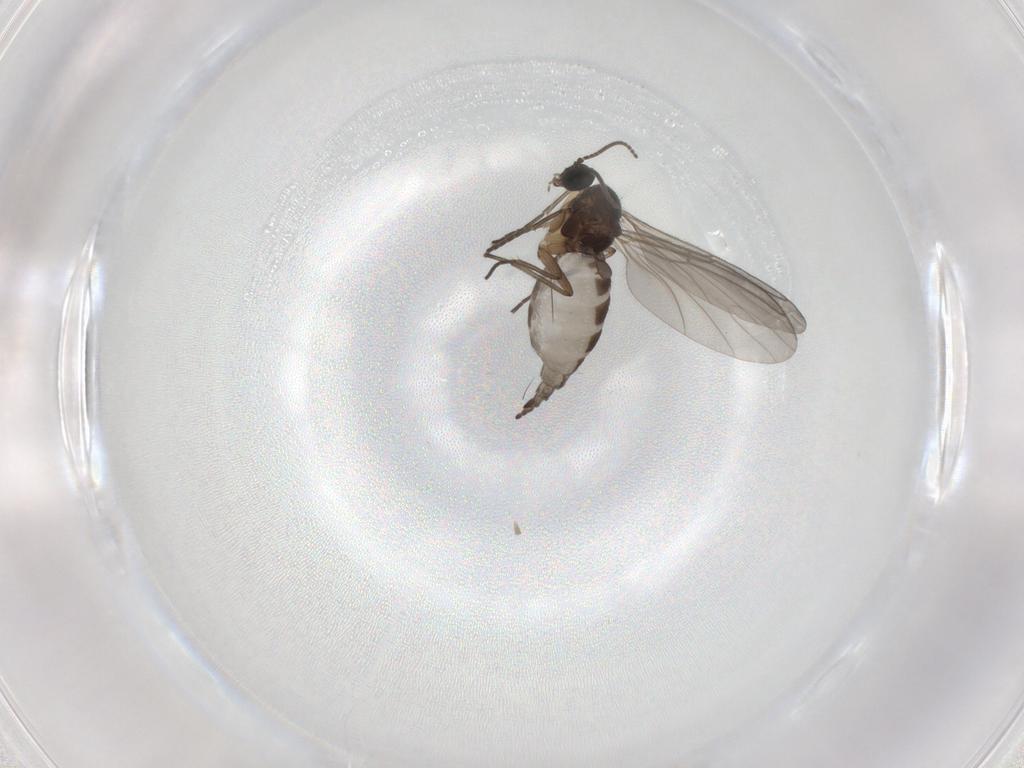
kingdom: Animalia
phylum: Arthropoda
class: Insecta
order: Diptera
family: Sciaridae
